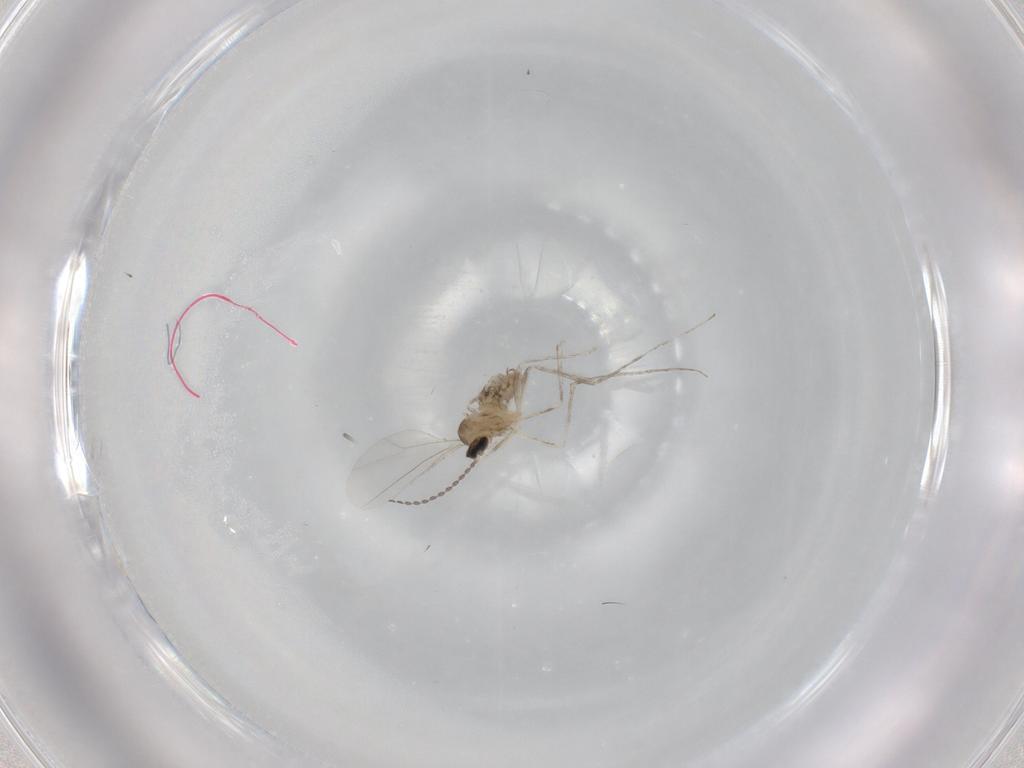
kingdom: Animalia
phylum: Arthropoda
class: Insecta
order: Diptera
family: Cecidomyiidae
